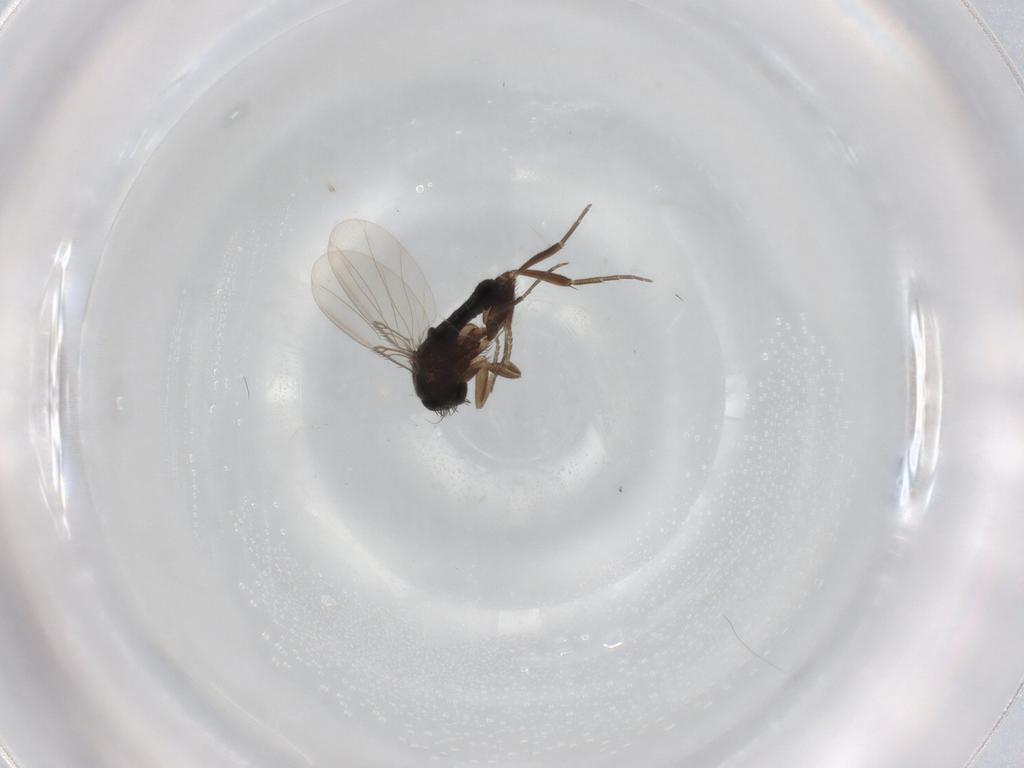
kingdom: Animalia
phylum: Arthropoda
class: Insecta
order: Diptera
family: Phoridae
